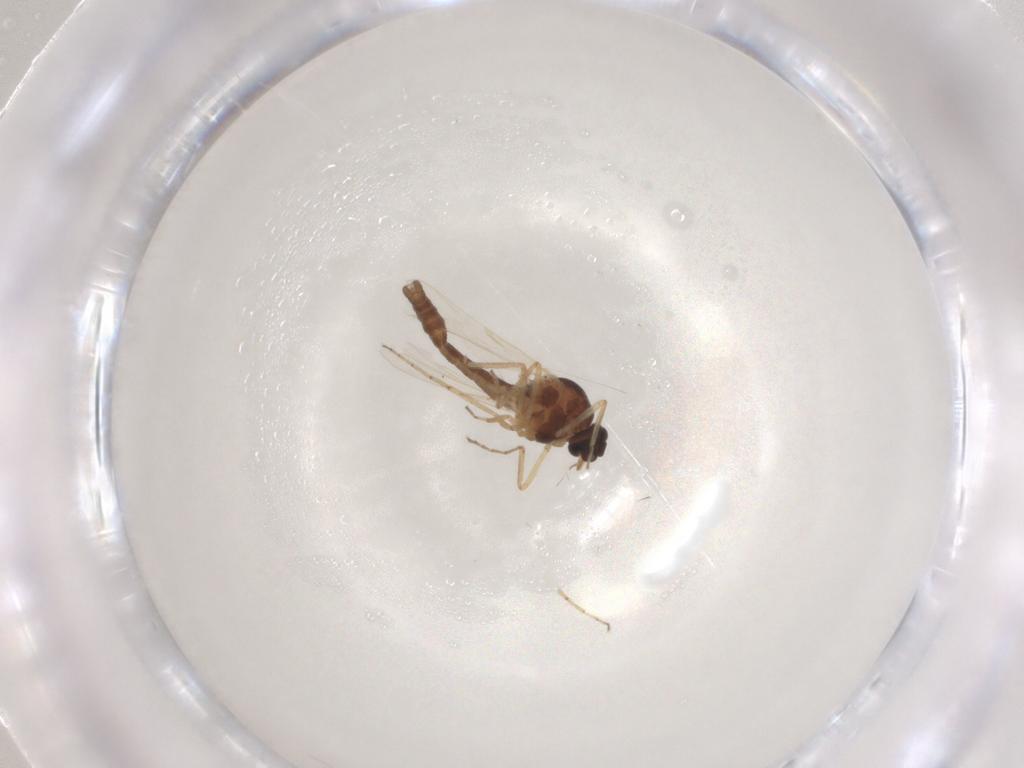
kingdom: Animalia
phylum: Arthropoda
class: Insecta
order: Diptera
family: Ceratopogonidae
